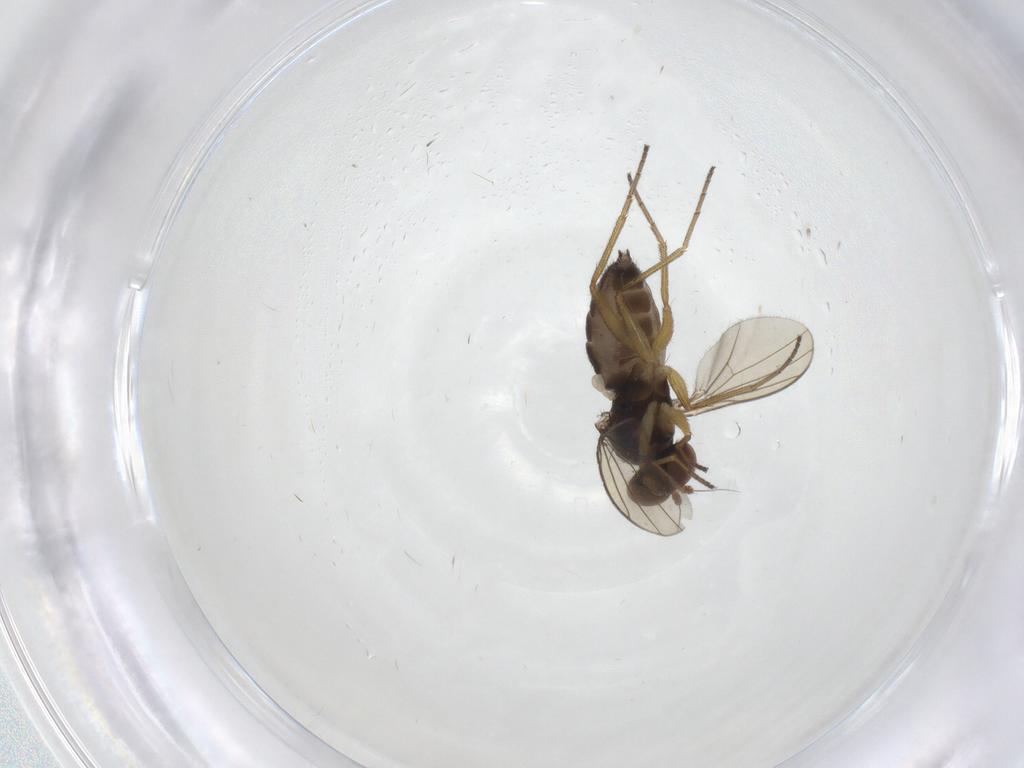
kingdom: Animalia
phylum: Arthropoda
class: Insecta
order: Diptera
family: Dolichopodidae
